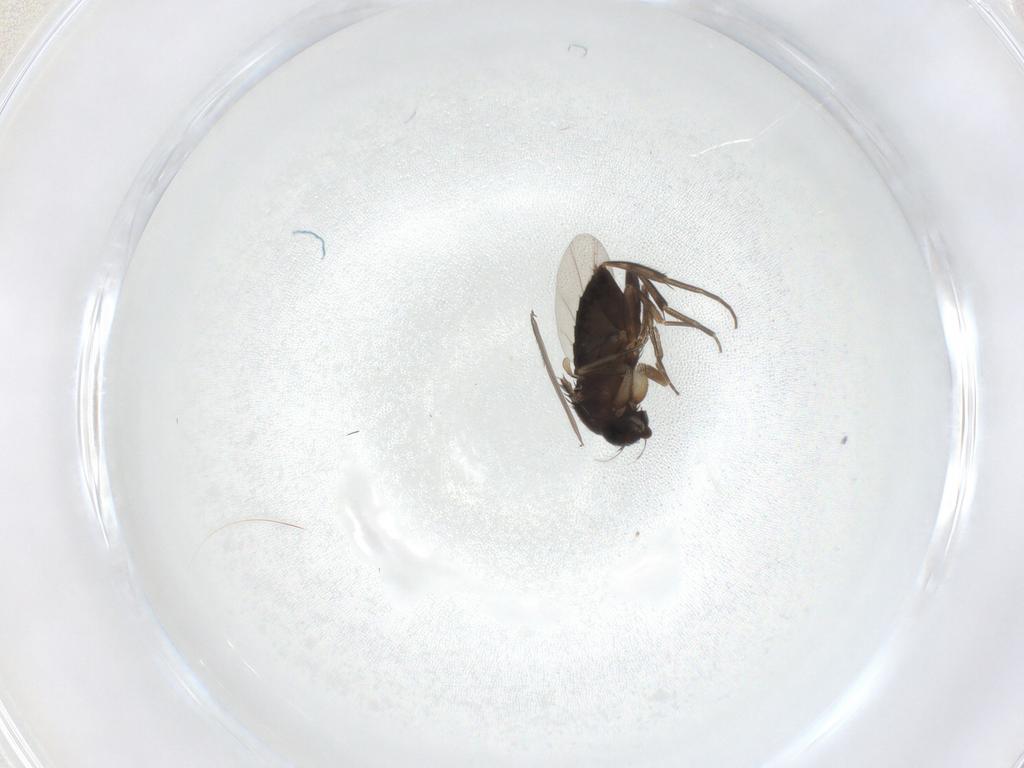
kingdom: Animalia
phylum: Arthropoda
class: Insecta
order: Diptera
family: Phoridae
